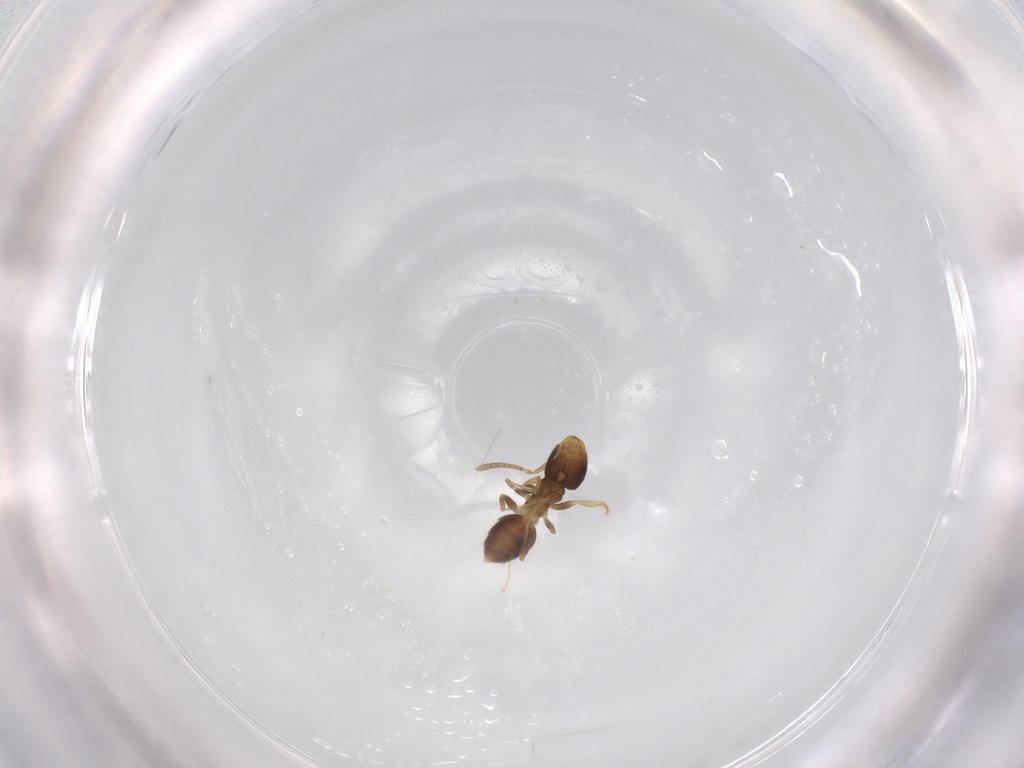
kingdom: Animalia
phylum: Arthropoda
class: Insecta
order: Hymenoptera
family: Formicidae
